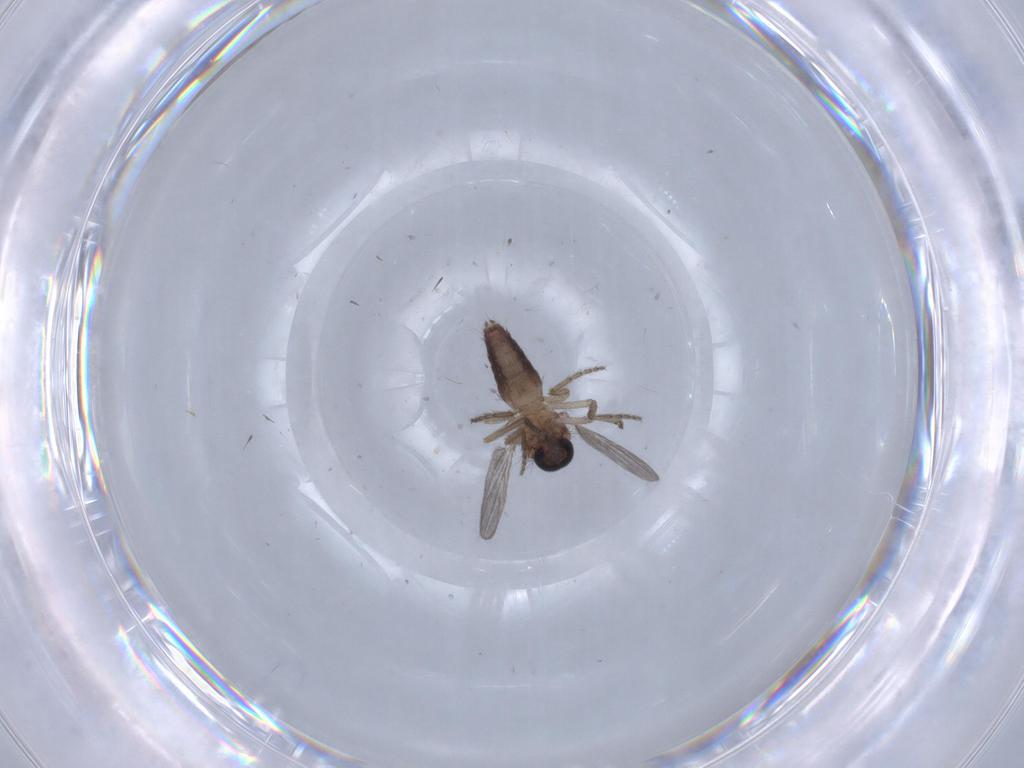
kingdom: Animalia
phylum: Arthropoda
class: Insecta
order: Diptera
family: Ceratopogonidae
